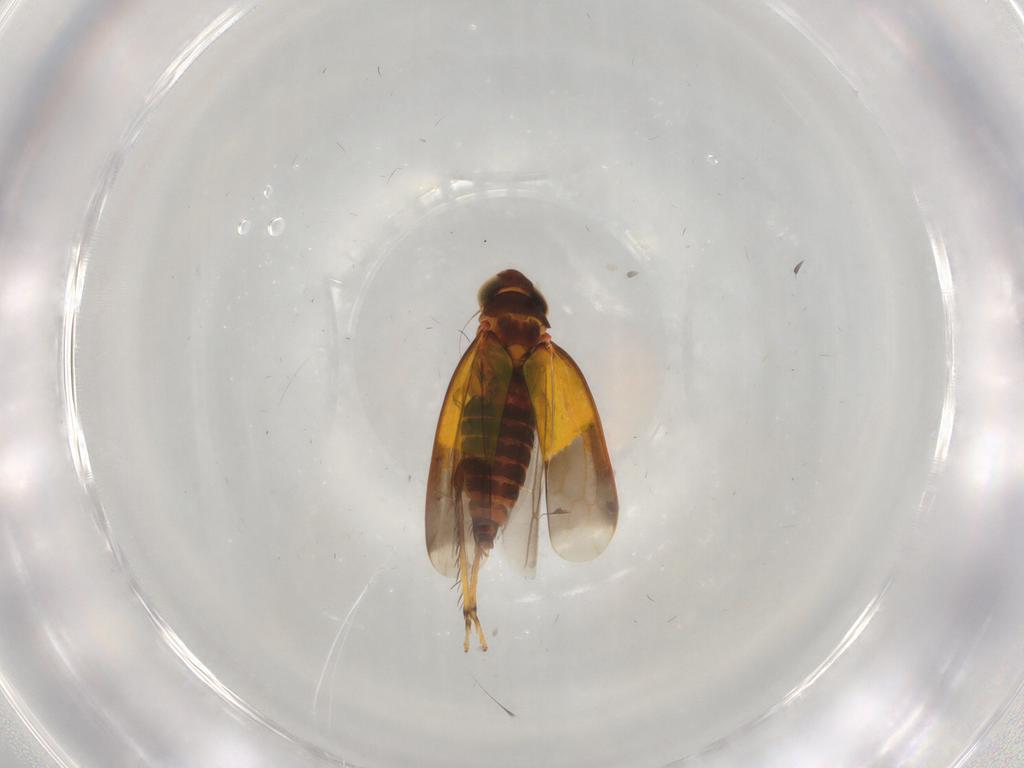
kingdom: Animalia
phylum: Arthropoda
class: Insecta
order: Hemiptera
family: Cicadellidae
